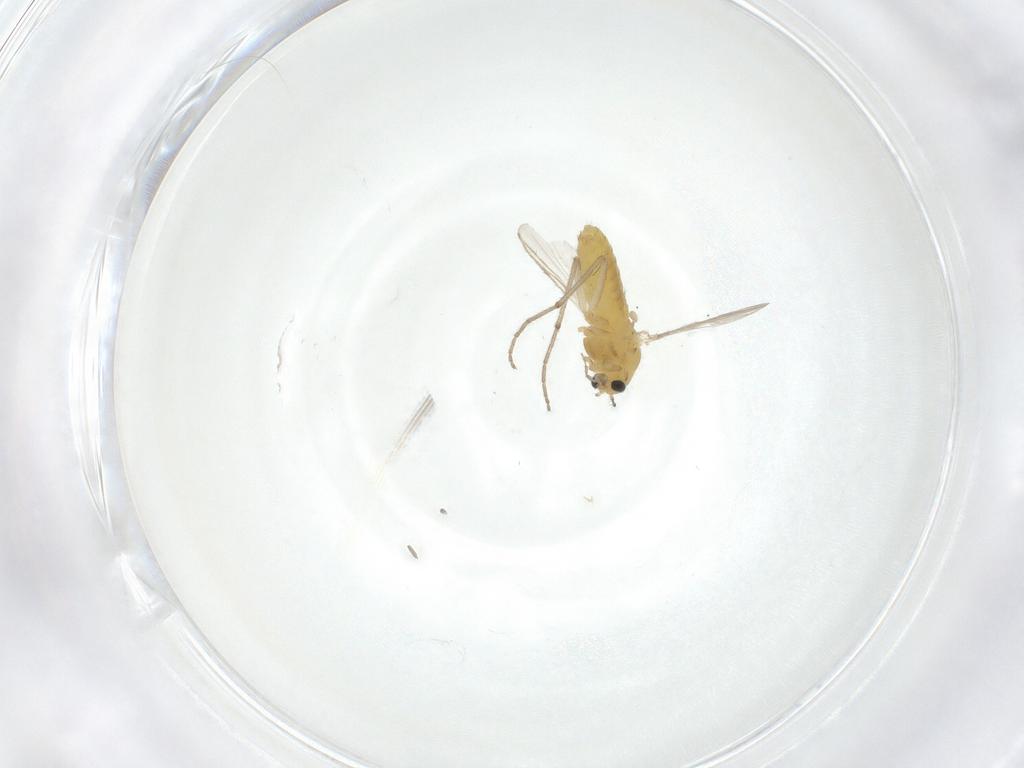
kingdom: Animalia
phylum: Arthropoda
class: Insecta
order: Diptera
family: Chironomidae
